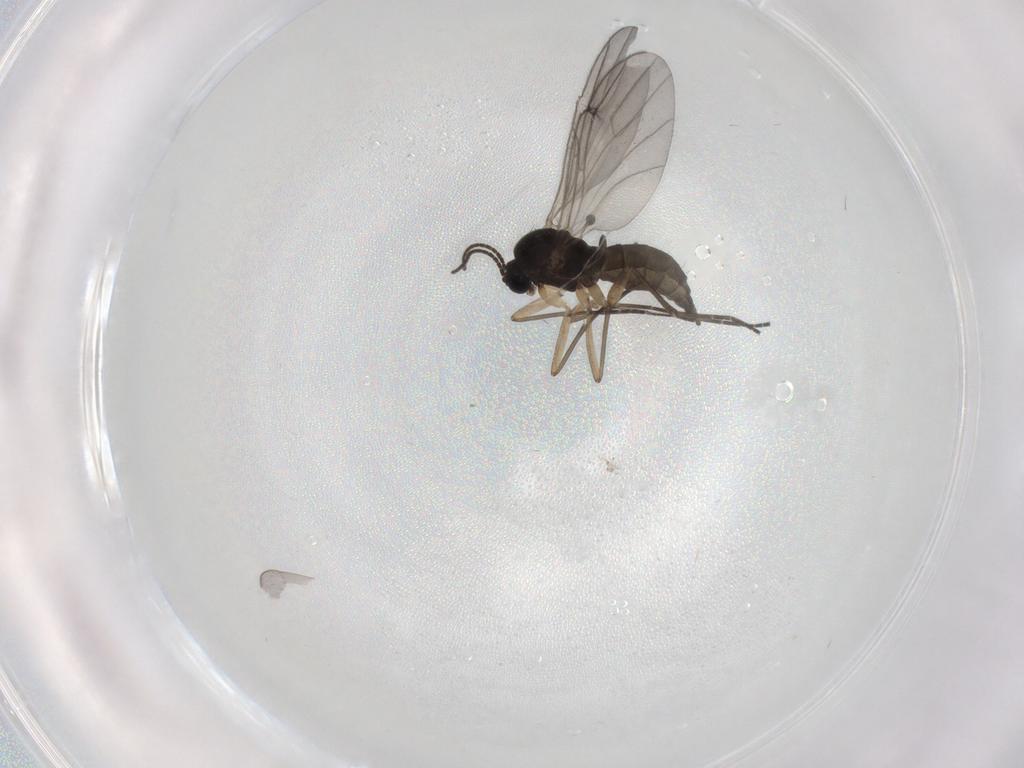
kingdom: Animalia
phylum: Arthropoda
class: Insecta
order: Diptera
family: Sciaridae
